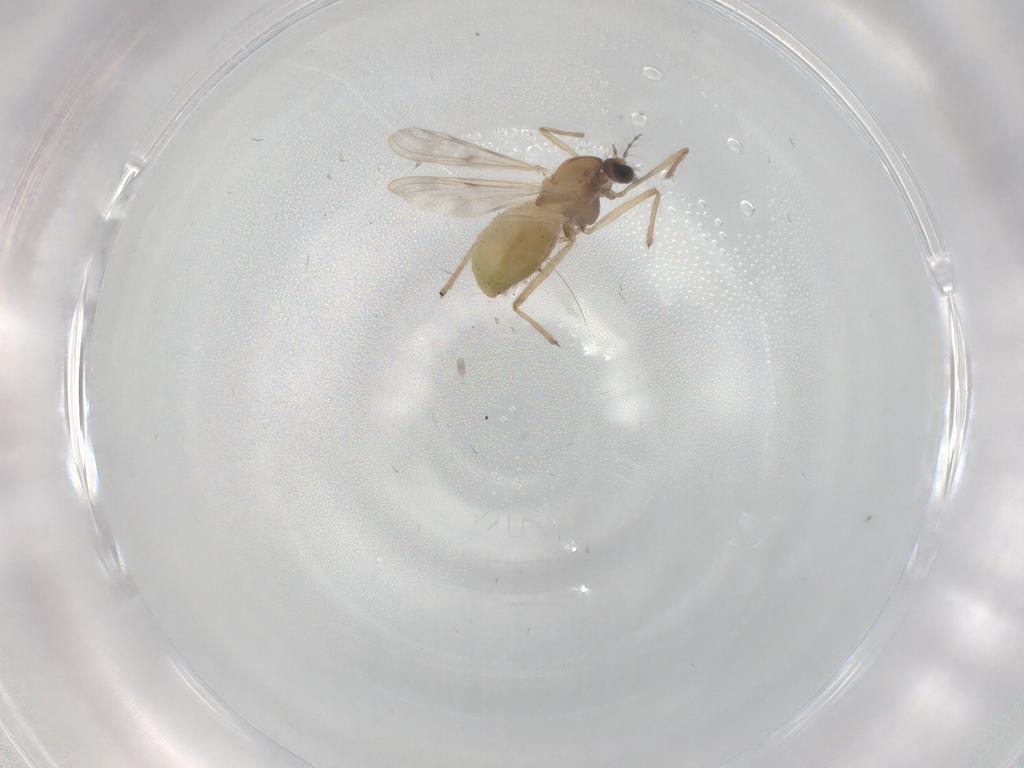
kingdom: Animalia
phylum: Arthropoda
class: Insecta
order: Diptera
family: Chironomidae
